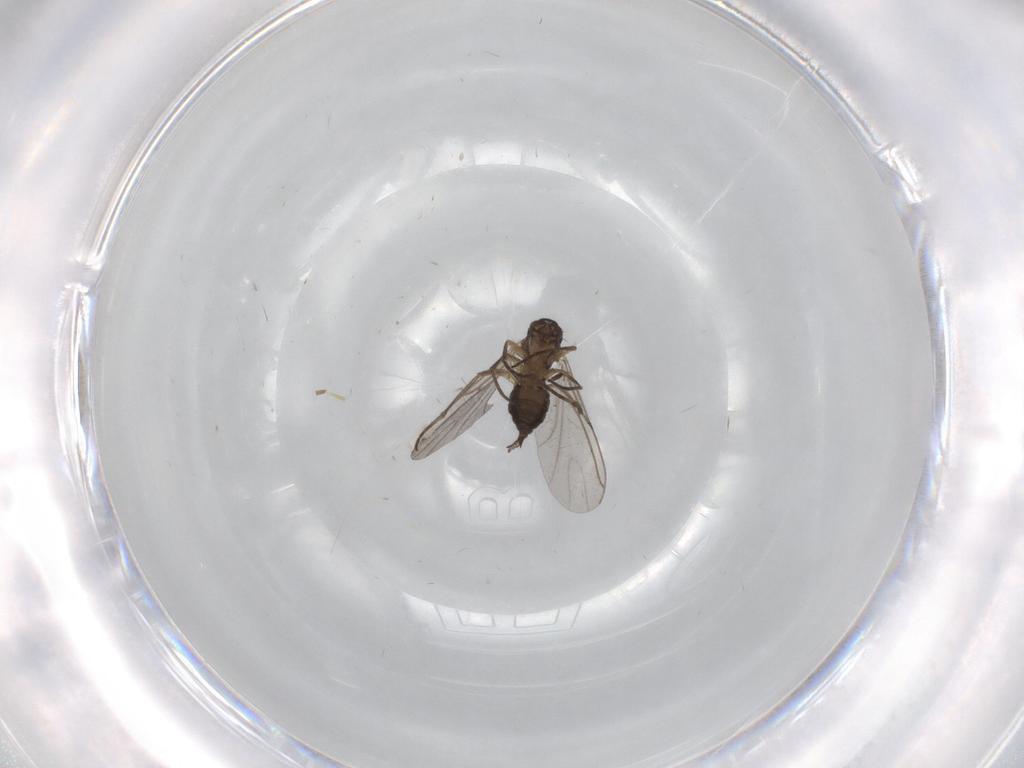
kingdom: Animalia
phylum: Arthropoda
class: Insecta
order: Diptera
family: Sciaridae
